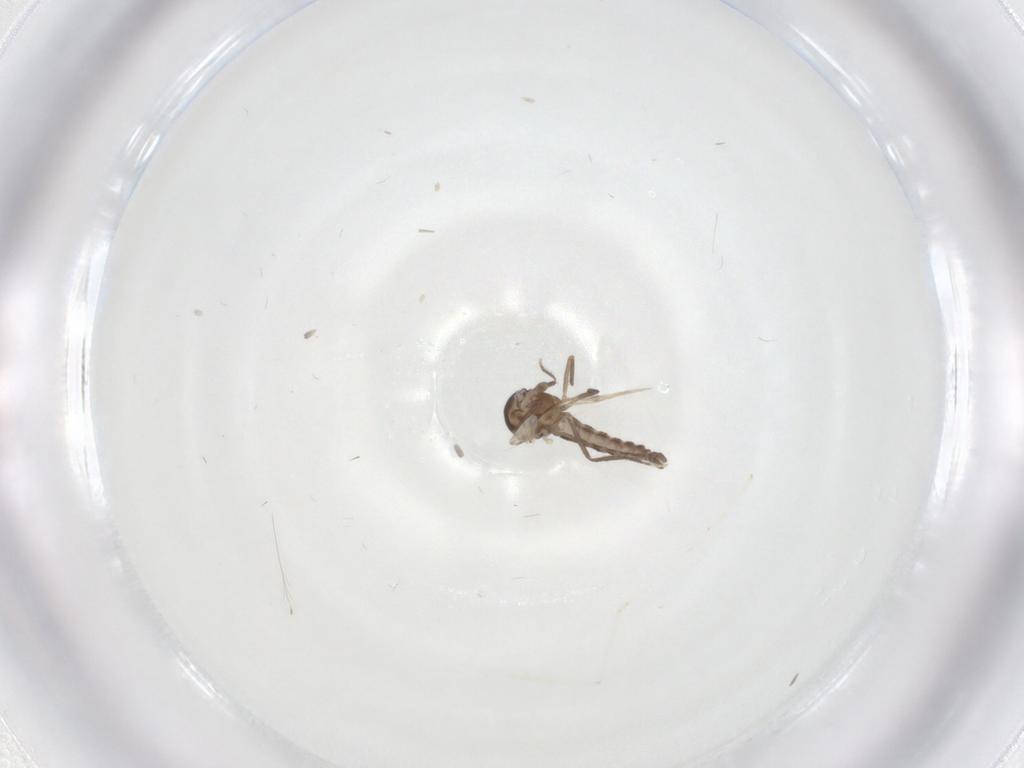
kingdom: Animalia
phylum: Arthropoda
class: Insecta
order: Diptera
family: Ceratopogonidae
